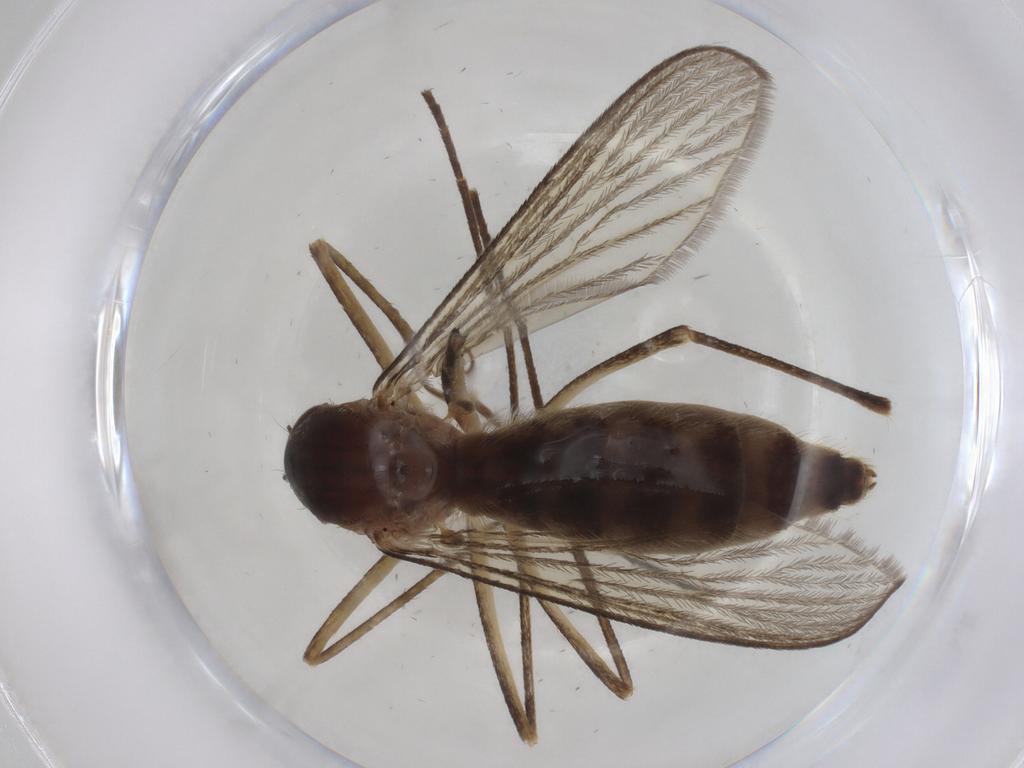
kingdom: Animalia
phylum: Arthropoda
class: Insecta
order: Diptera
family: Culicidae
